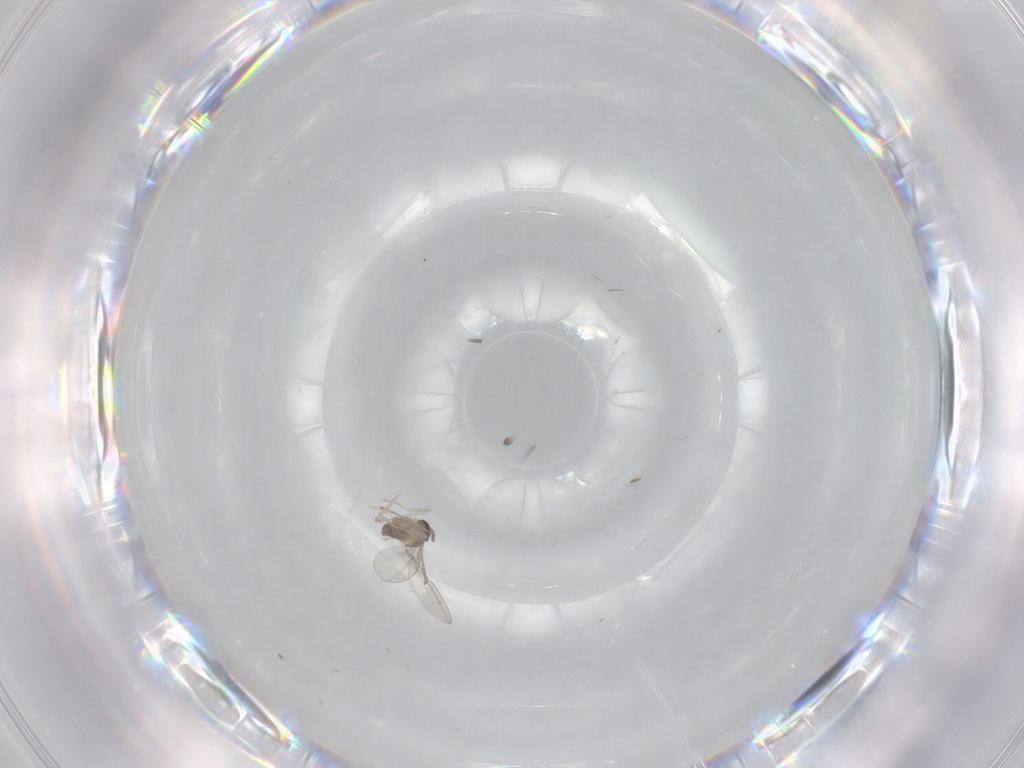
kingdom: Animalia
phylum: Arthropoda
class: Insecta
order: Diptera
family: Cecidomyiidae
